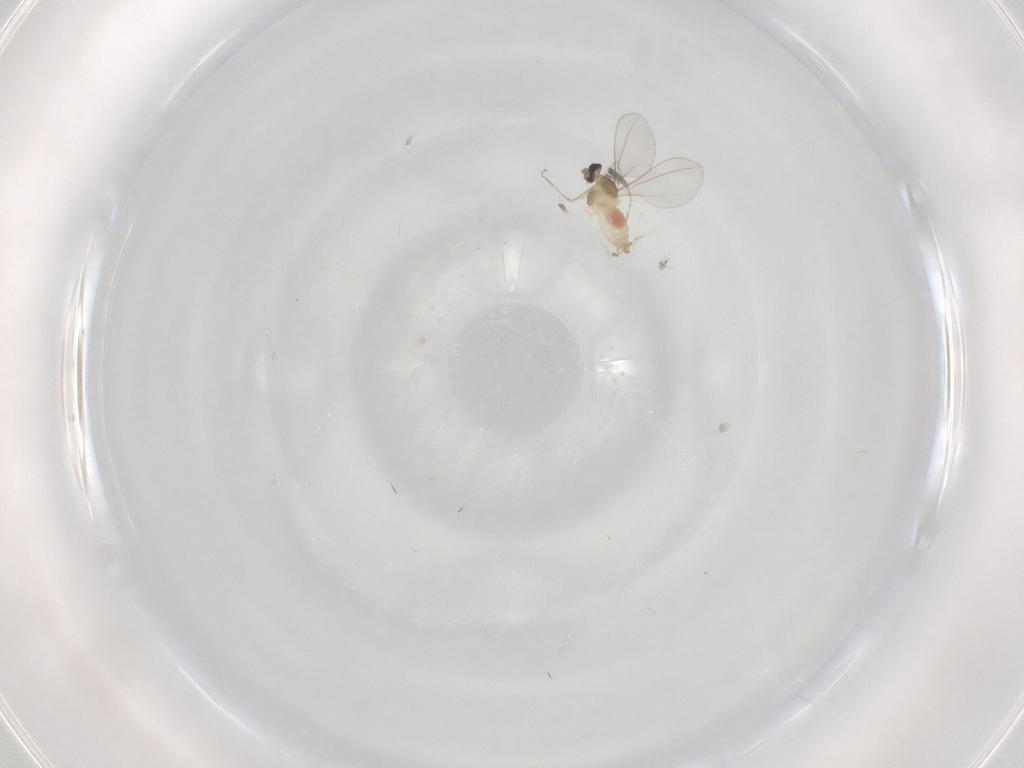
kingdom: Animalia
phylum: Arthropoda
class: Insecta
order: Diptera
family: Cecidomyiidae
